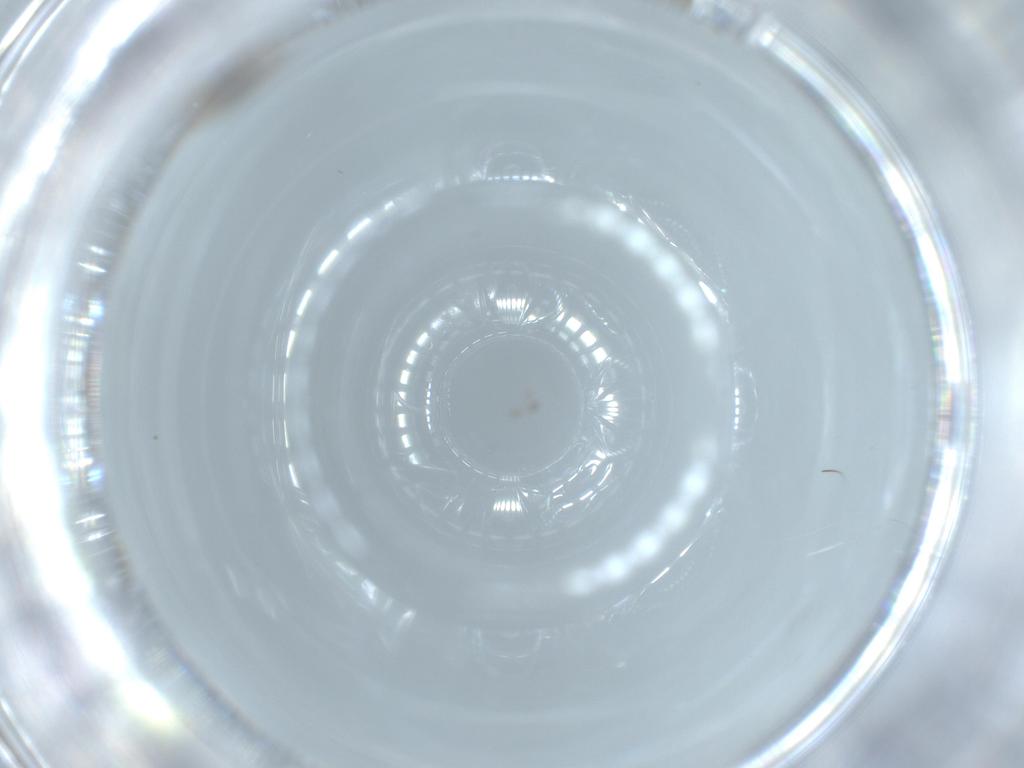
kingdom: Animalia
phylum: Arthropoda
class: Insecta
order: Diptera
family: Cecidomyiidae
